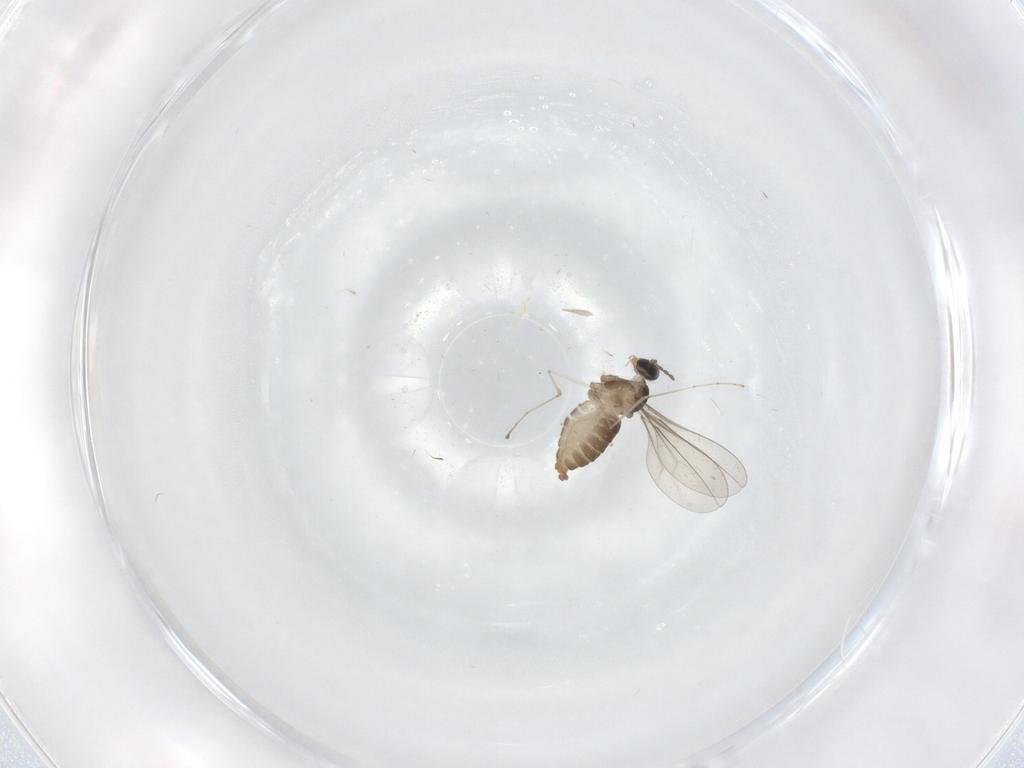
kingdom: Animalia
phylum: Arthropoda
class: Insecta
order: Diptera
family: Cecidomyiidae
